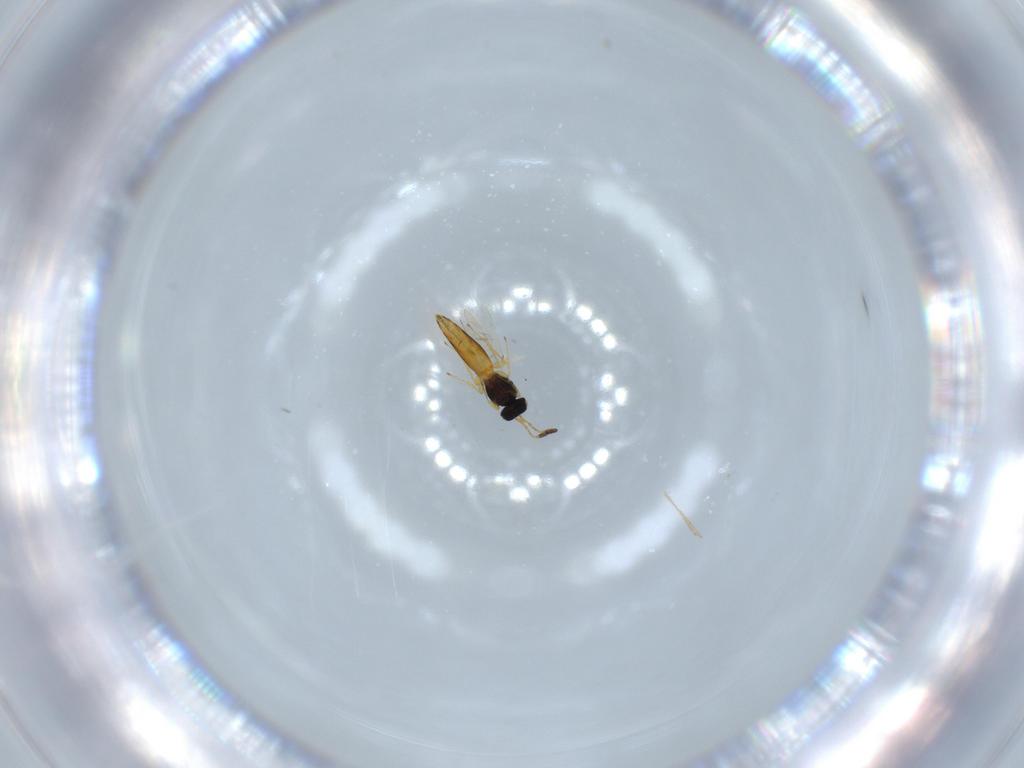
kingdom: Animalia
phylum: Arthropoda
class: Insecta
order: Hymenoptera
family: Scelionidae
